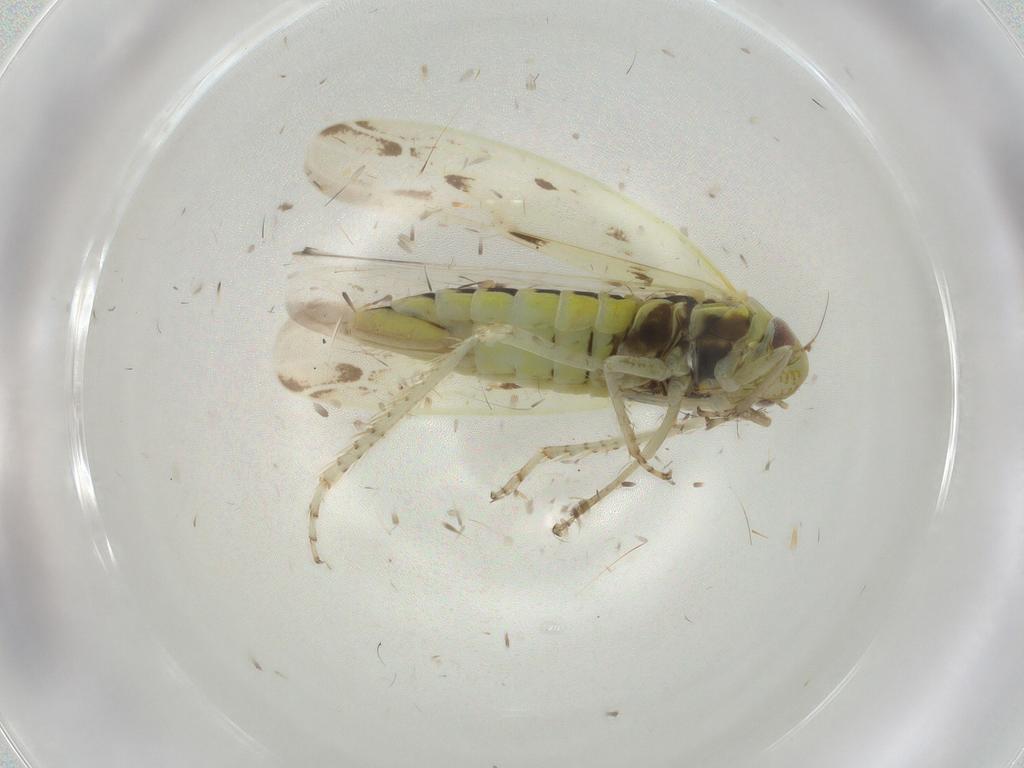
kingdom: Animalia
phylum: Arthropoda
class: Insecta
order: Hemiptera
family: Cicadellidae
